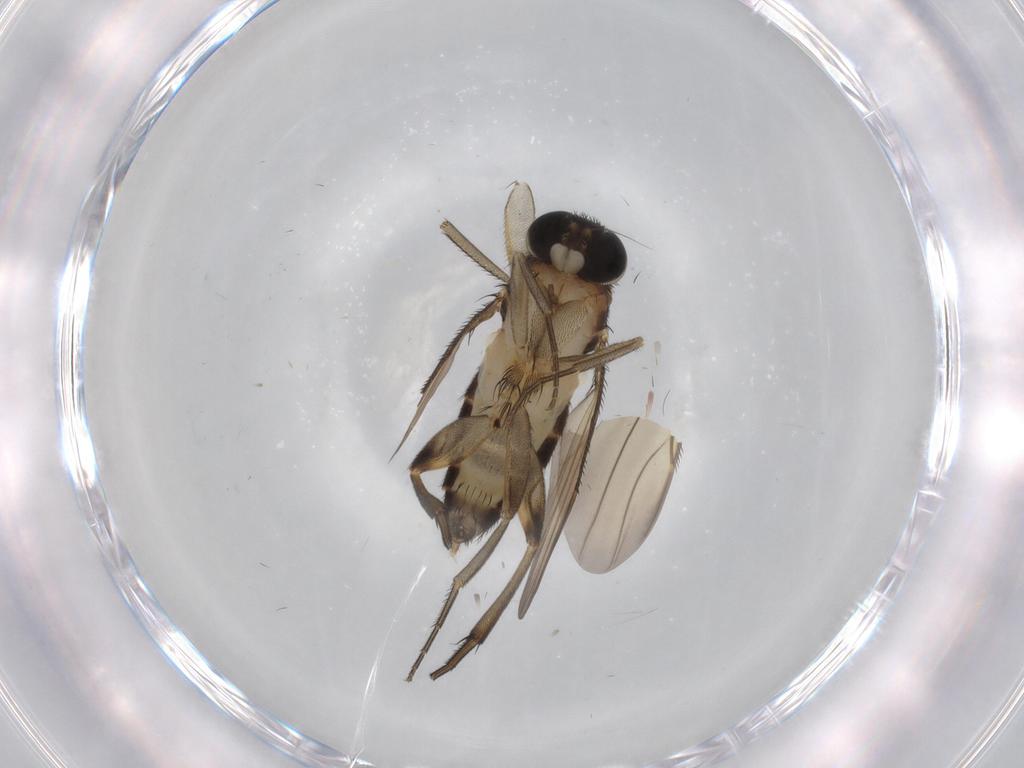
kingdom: Animalia
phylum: Arthropoda
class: Insecta
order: Diptera
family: Phoridae
